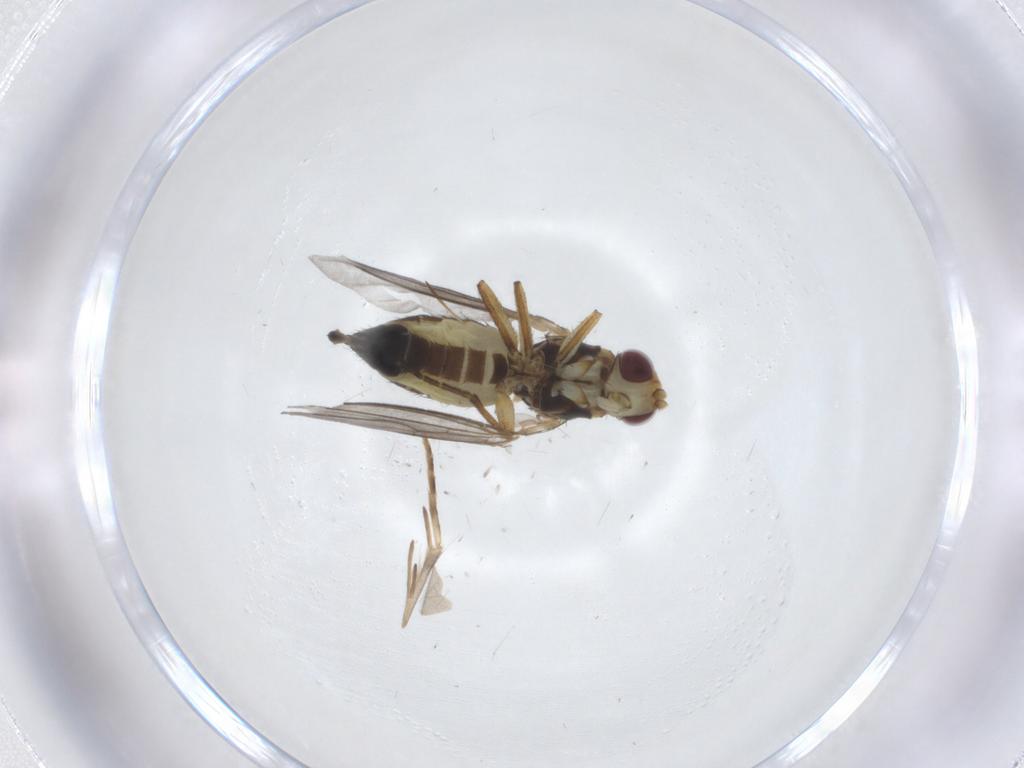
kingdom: Animalia
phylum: Arthropoda
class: Insecta
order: Diptera
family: Agromyzidae
